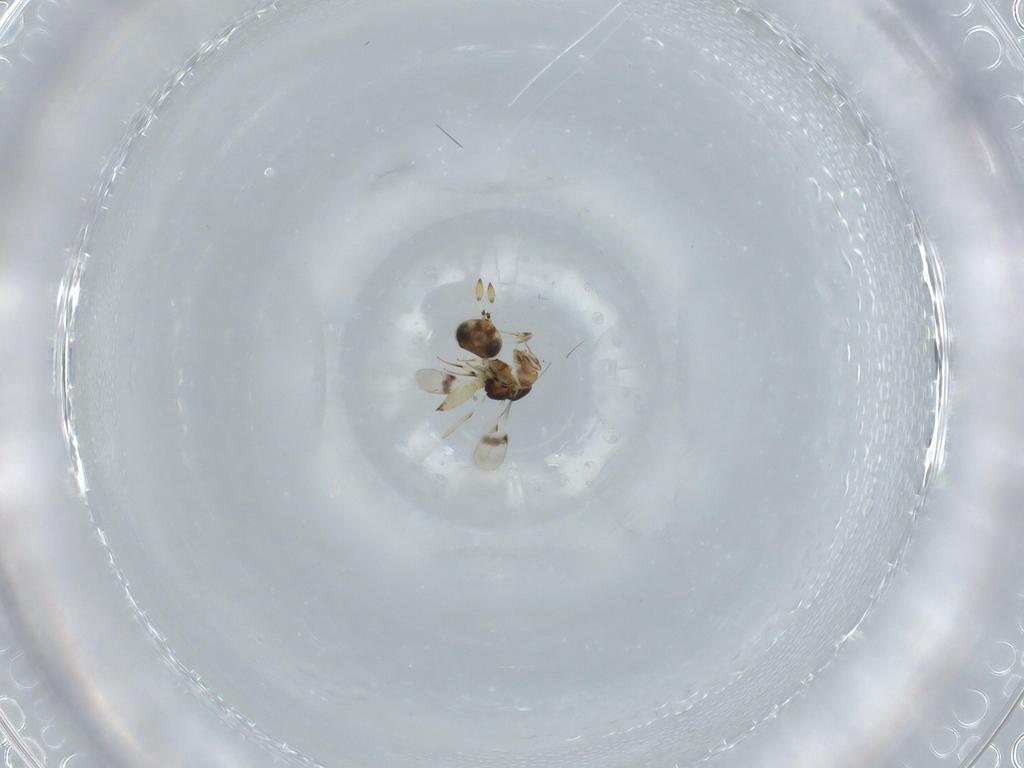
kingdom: Animalia
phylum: Arthropoda
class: Insecta
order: Hymenoptera
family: Scelionidae
